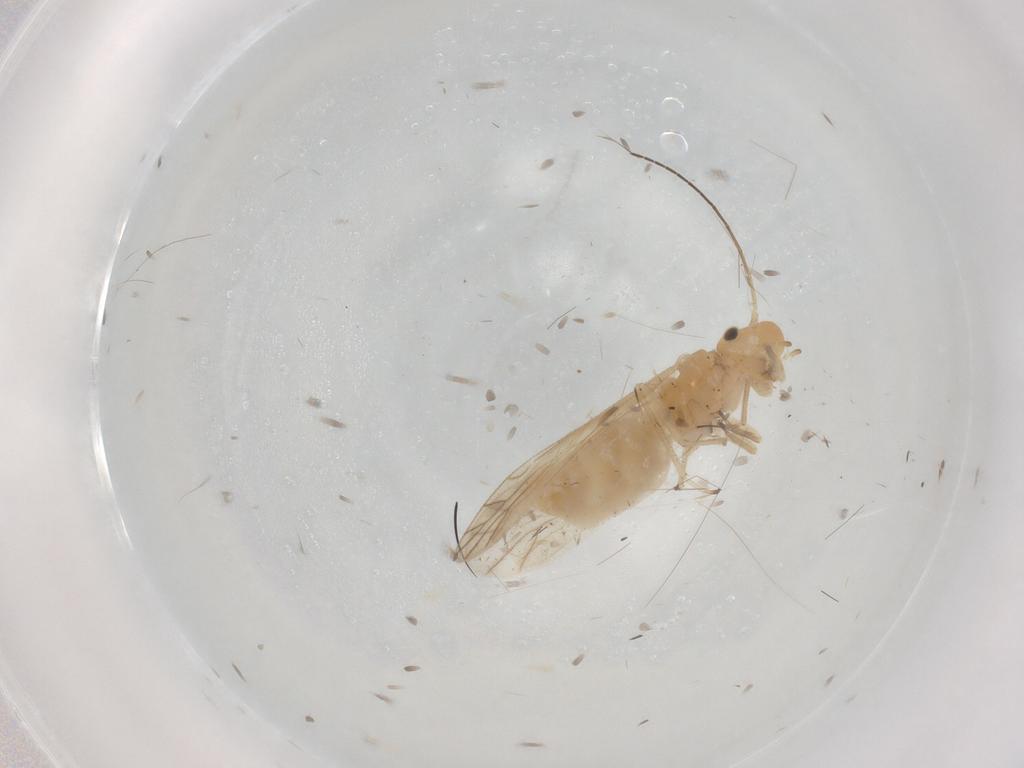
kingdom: Animalia
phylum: Arthropoda
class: Insecta
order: Psocodea
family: Caeciliusidae
